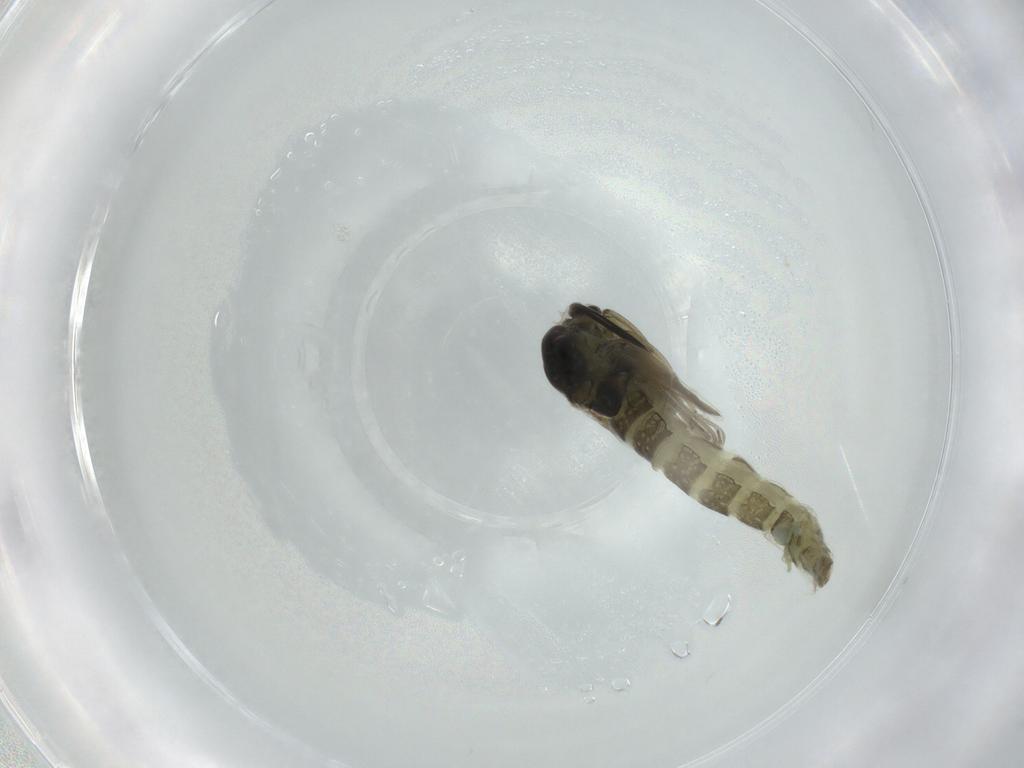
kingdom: Animalia
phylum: Arthropoda
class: Insecta
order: Diptera
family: Chironomidae
